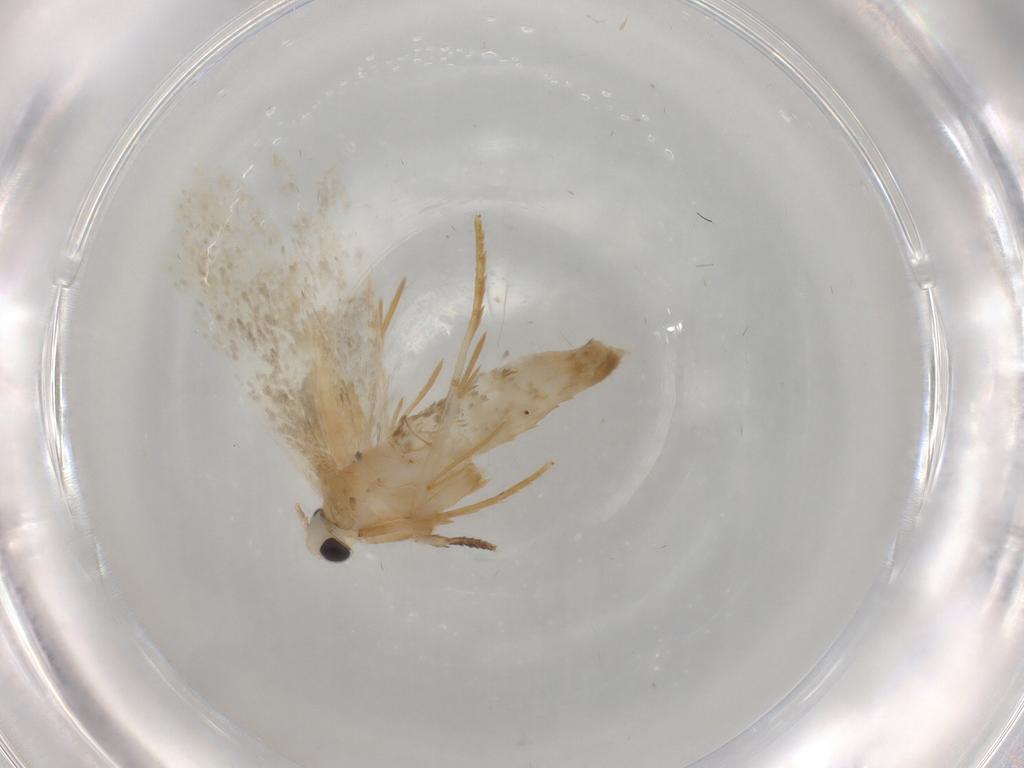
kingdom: Animalia
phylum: Arthropoda
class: Insecta
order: Lepidoptera
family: Tineidae
